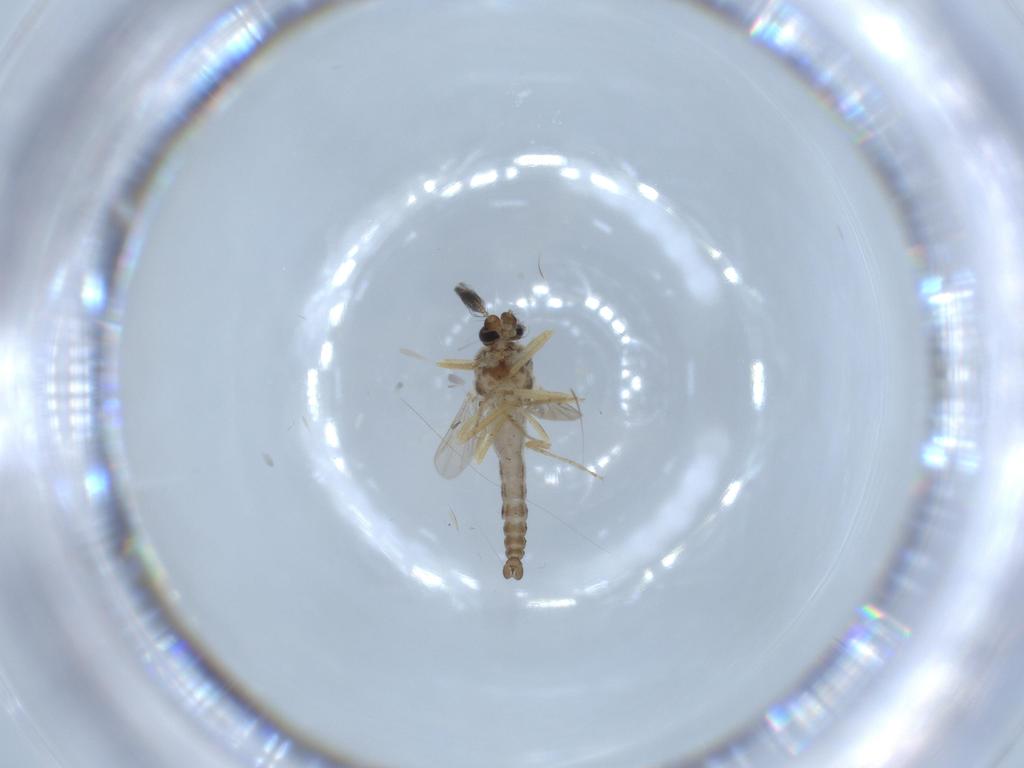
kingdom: Animalia
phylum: Arthropoda
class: Insecta
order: Diptera
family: Ceratopogonidae
